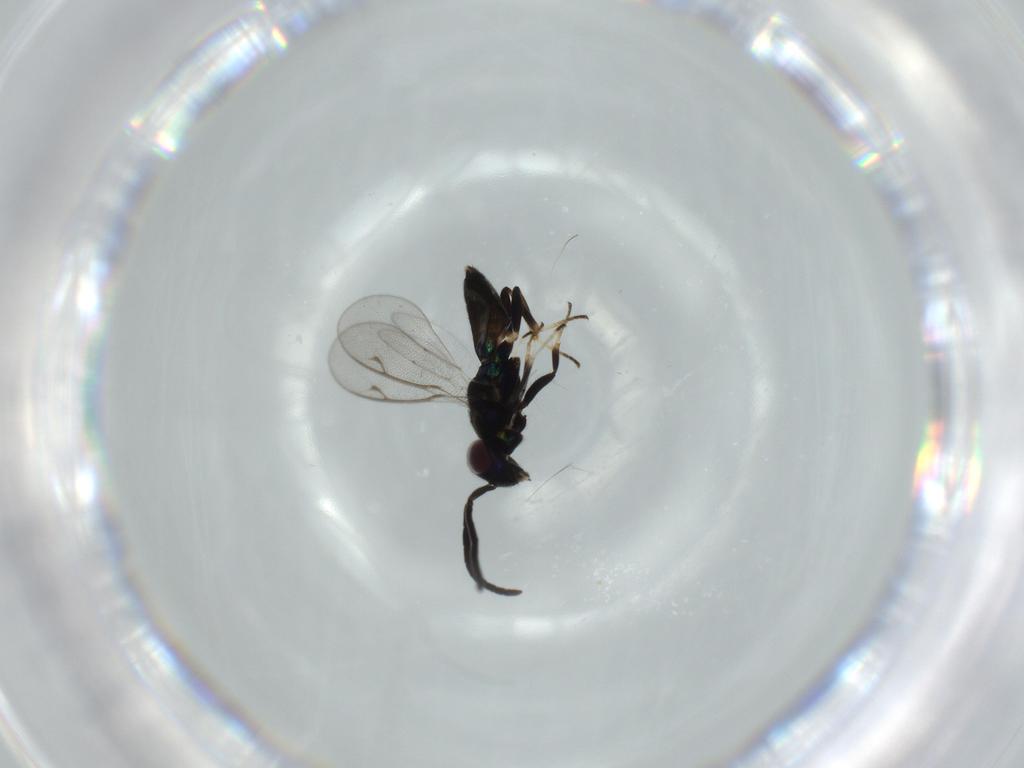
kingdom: Animalia
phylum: Arthropoda
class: Insecta
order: Hymenoptera
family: Eupelmidae
